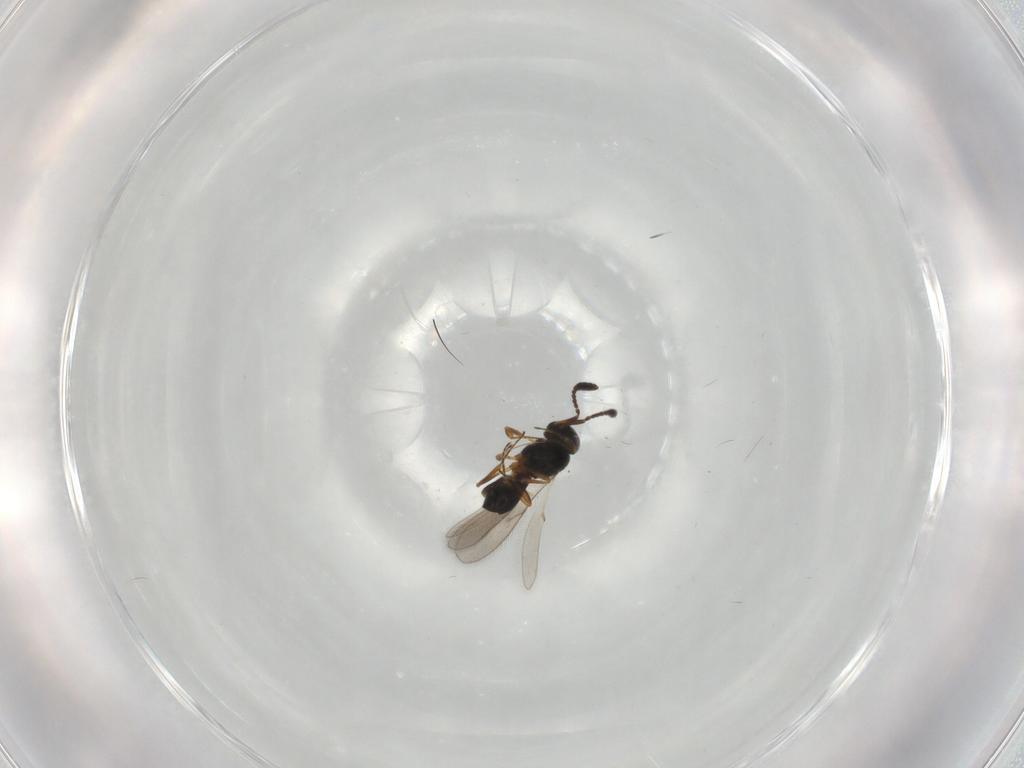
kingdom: Animalia
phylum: Arthropoda
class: Insecta
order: Hymenoptera
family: Scelionidae
